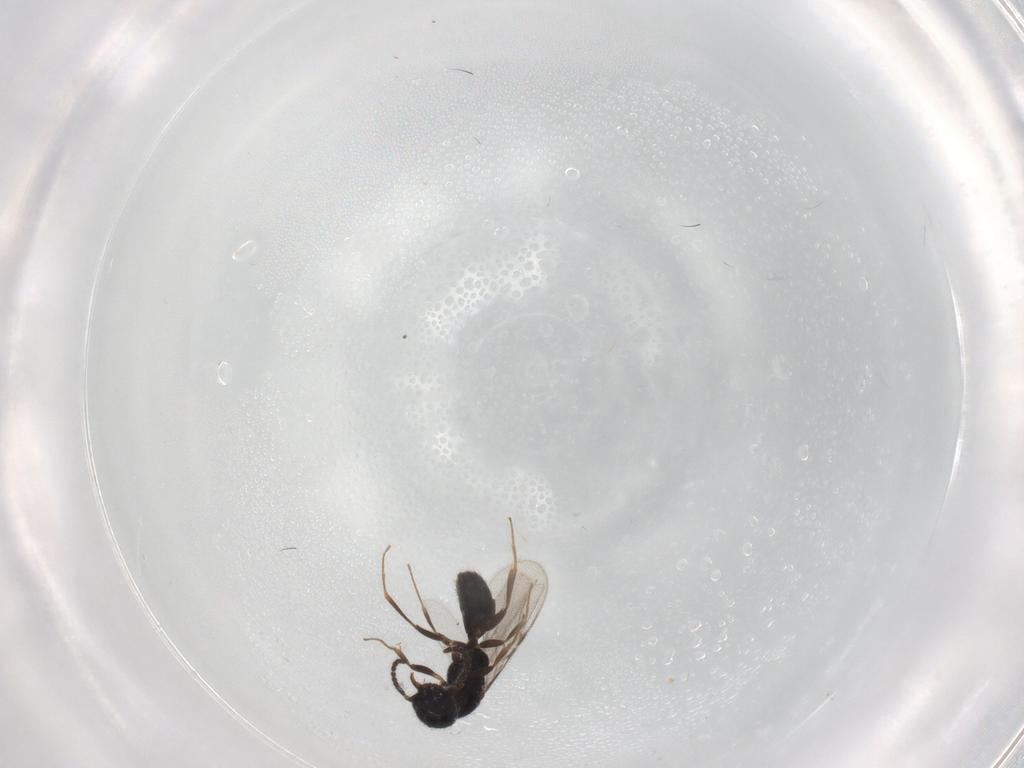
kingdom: Animalia
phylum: Arthropoda
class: Insecta
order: Hymenoptera
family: Bethylidae
